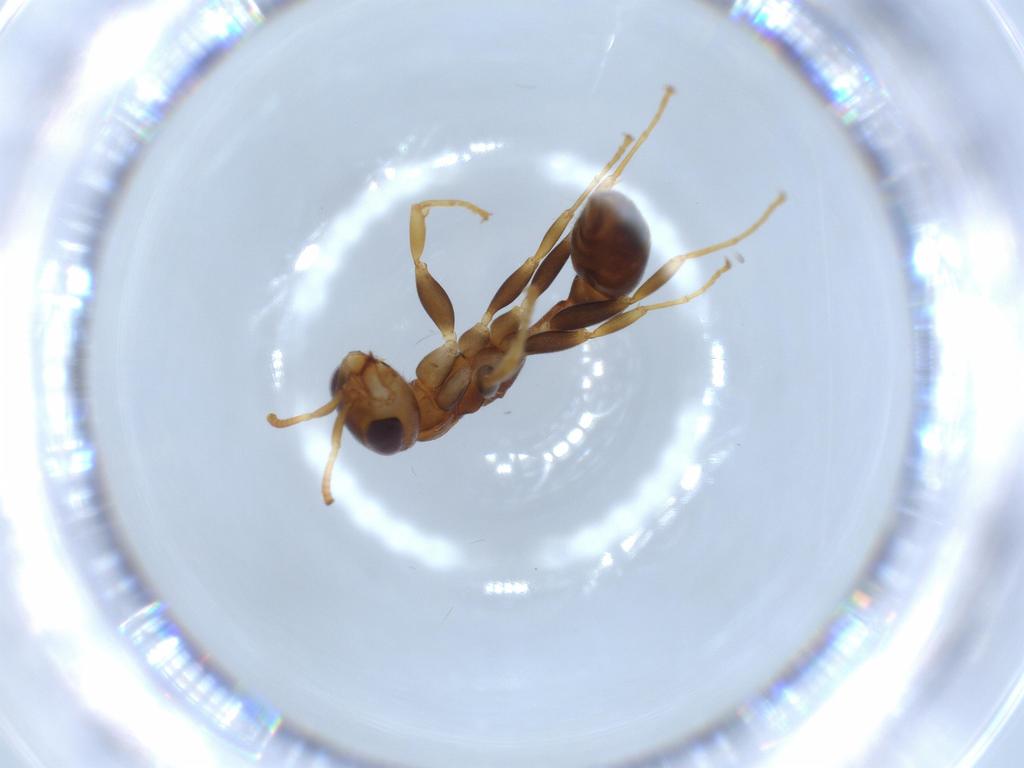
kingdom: Animalia
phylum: Arthropoda
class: Insecta
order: Hymenoptera
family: Formicidae
